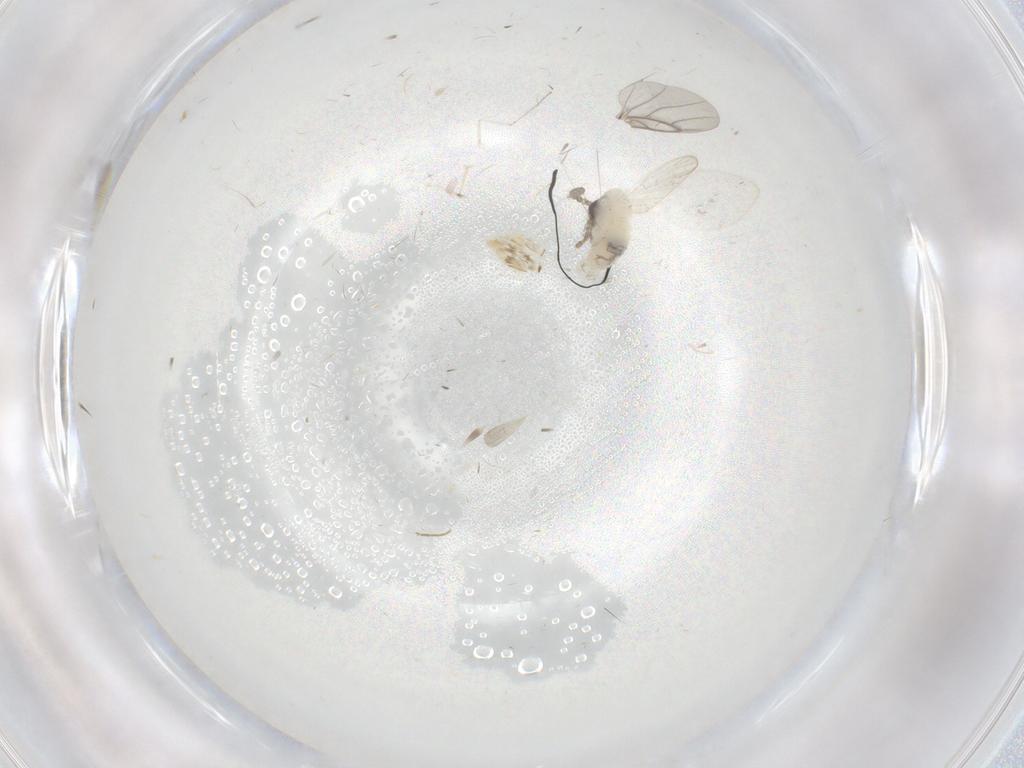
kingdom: Animalia
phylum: Arthropoda
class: Insecta
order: Diptera
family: Psychodidae
